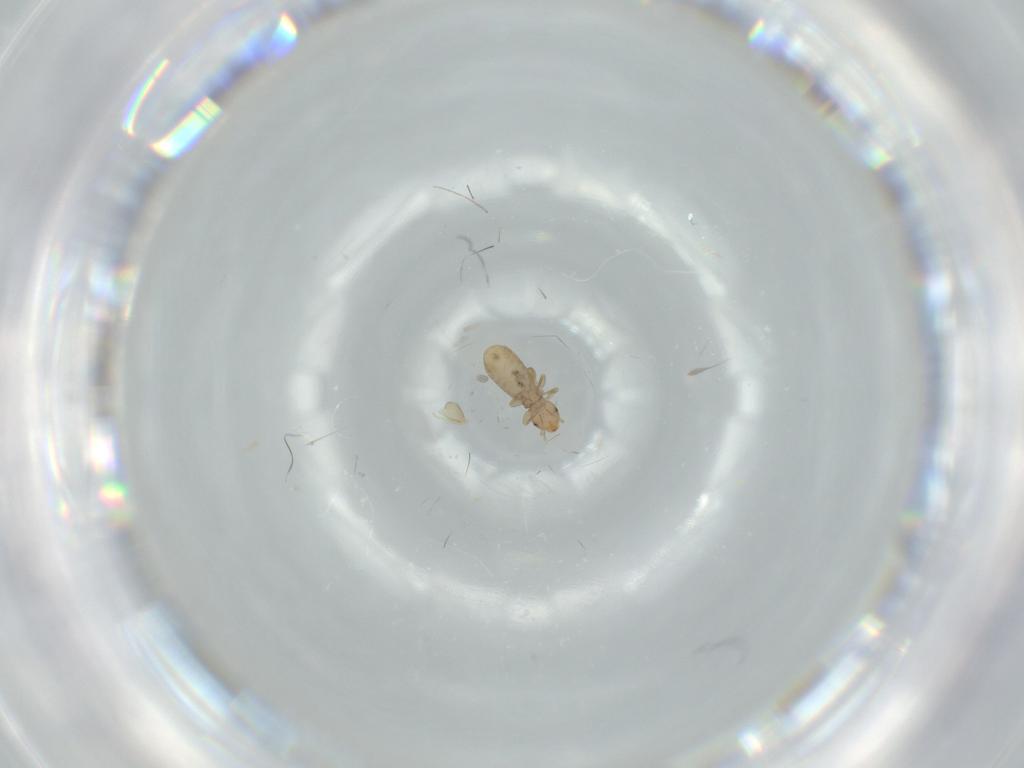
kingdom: Animalia
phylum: Arthropoda
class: Insecta
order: Psocodea
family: Liposcelididae
